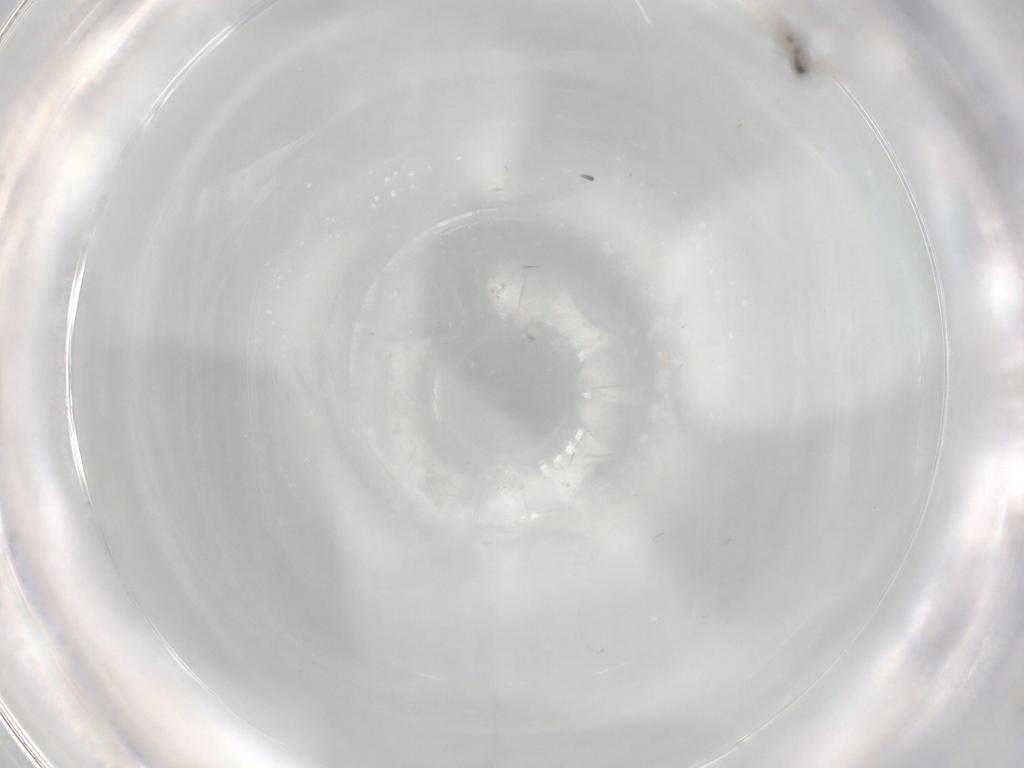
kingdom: Animalia
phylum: Arthropoda
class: Insecta
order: Diptera
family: Cecidomyiidae
